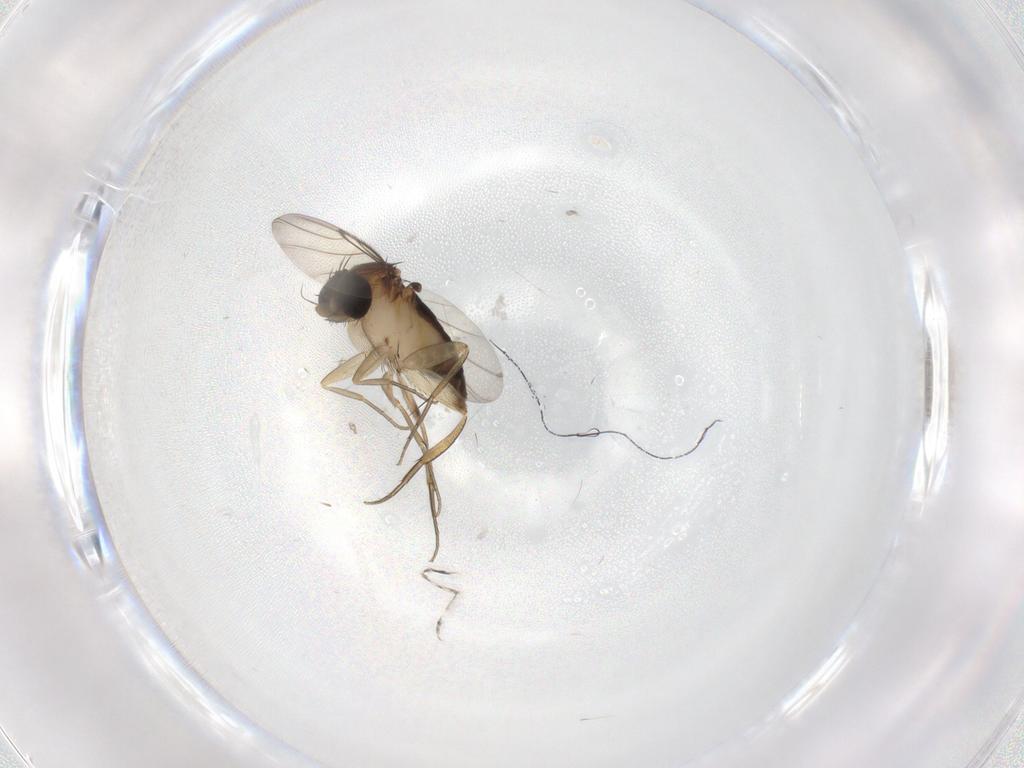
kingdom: Animalia
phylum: Arthropoda
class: Insecta
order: Diptera
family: Phoridae
